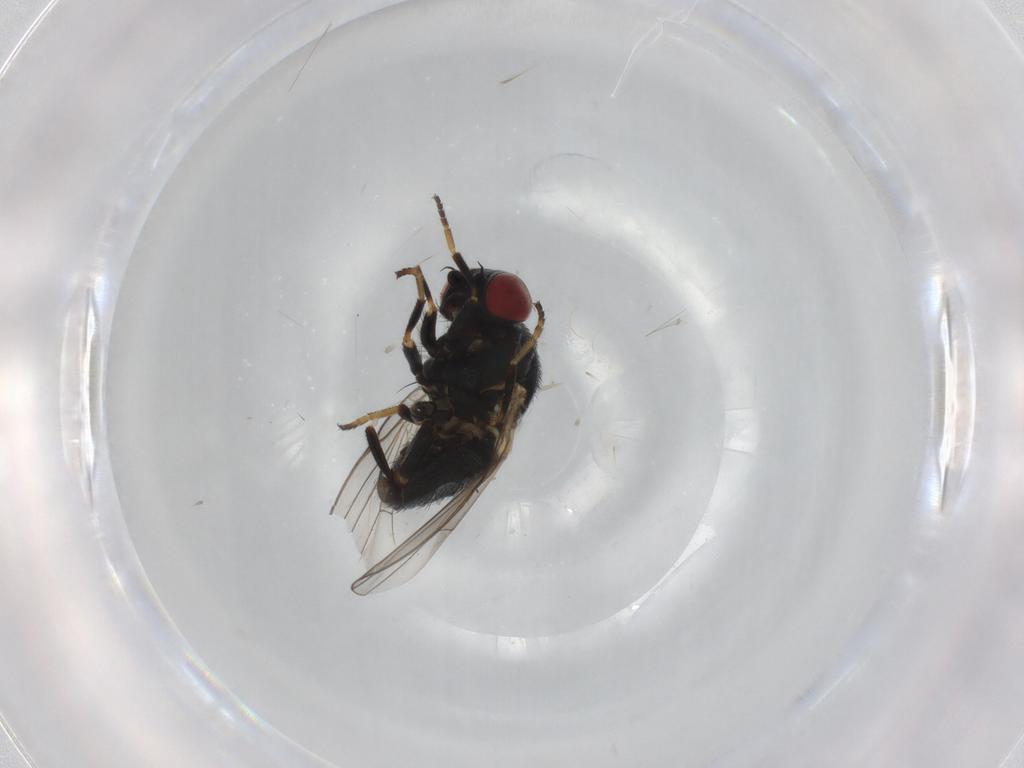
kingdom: Animalia
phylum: Arthropoda
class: Insecta
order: Diptera
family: Chamaemyiidae
